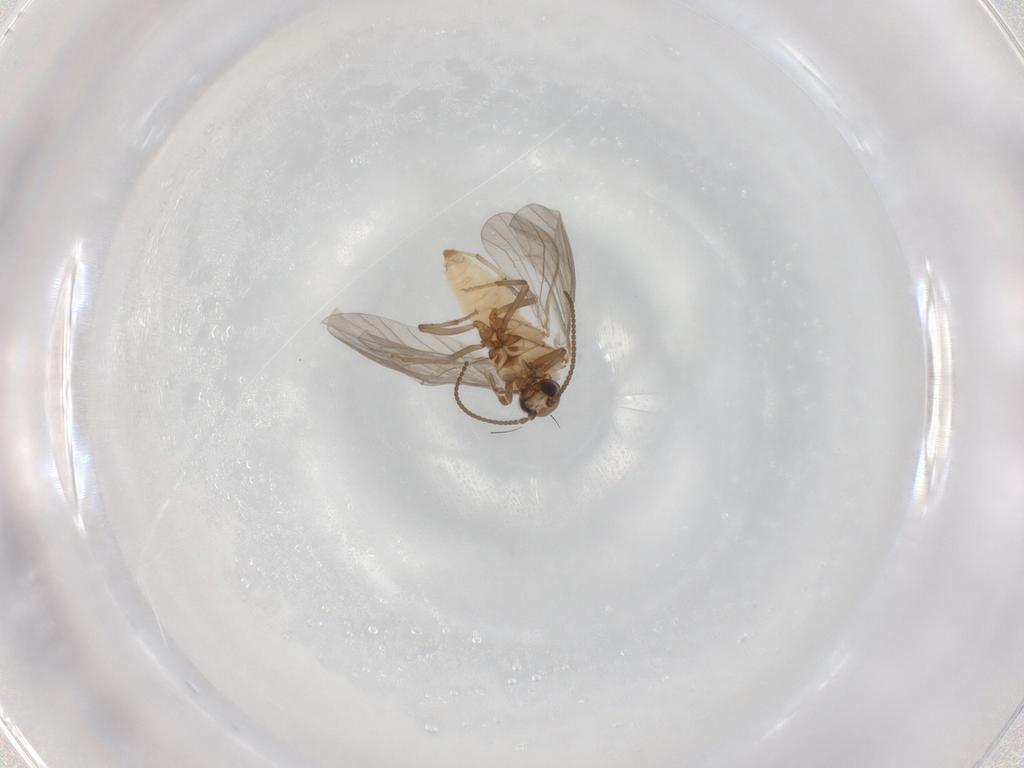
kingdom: Animalia
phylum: Arthropoda
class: Insecta
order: Neuroptera
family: Coniopterygidae
